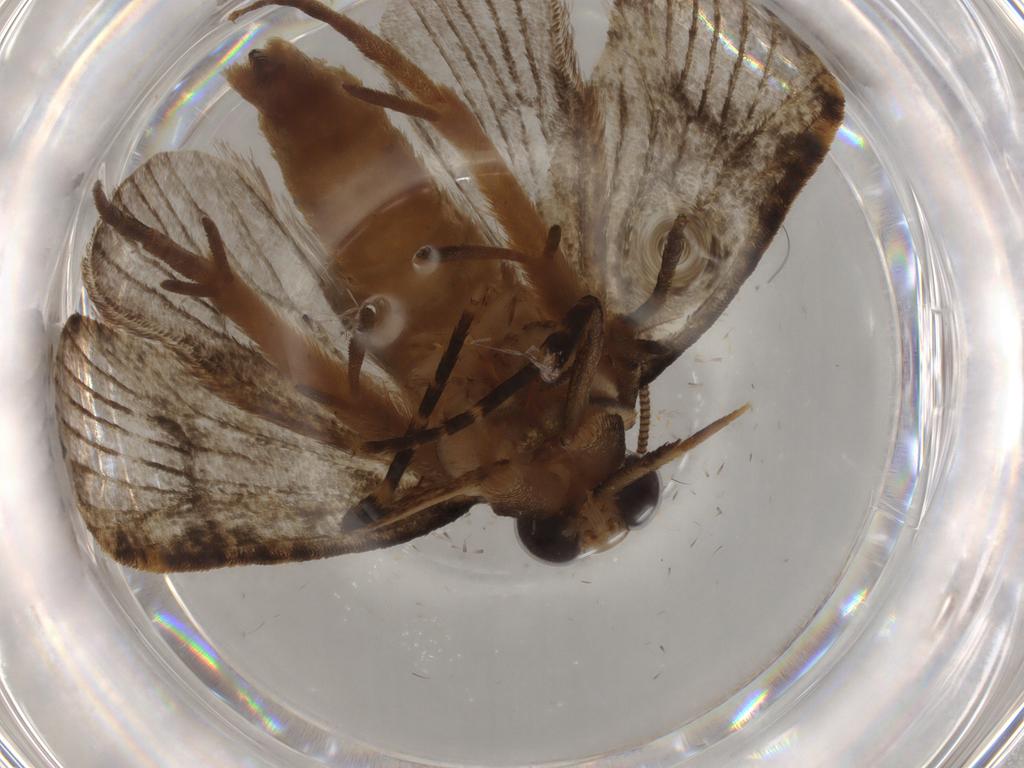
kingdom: Animalia
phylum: Arthropoda
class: Insecta
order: Lepidoptera
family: Tineidae
